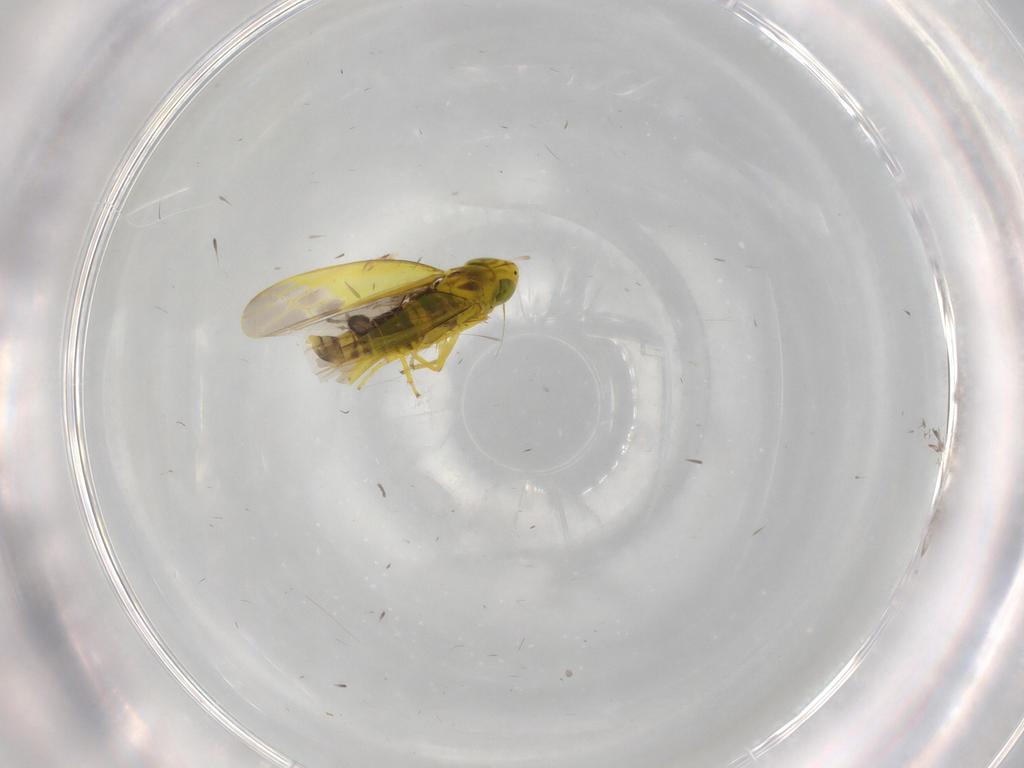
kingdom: Animalia
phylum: Arthropoda
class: Insecta
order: Hemiptera
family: Cicadellidae
